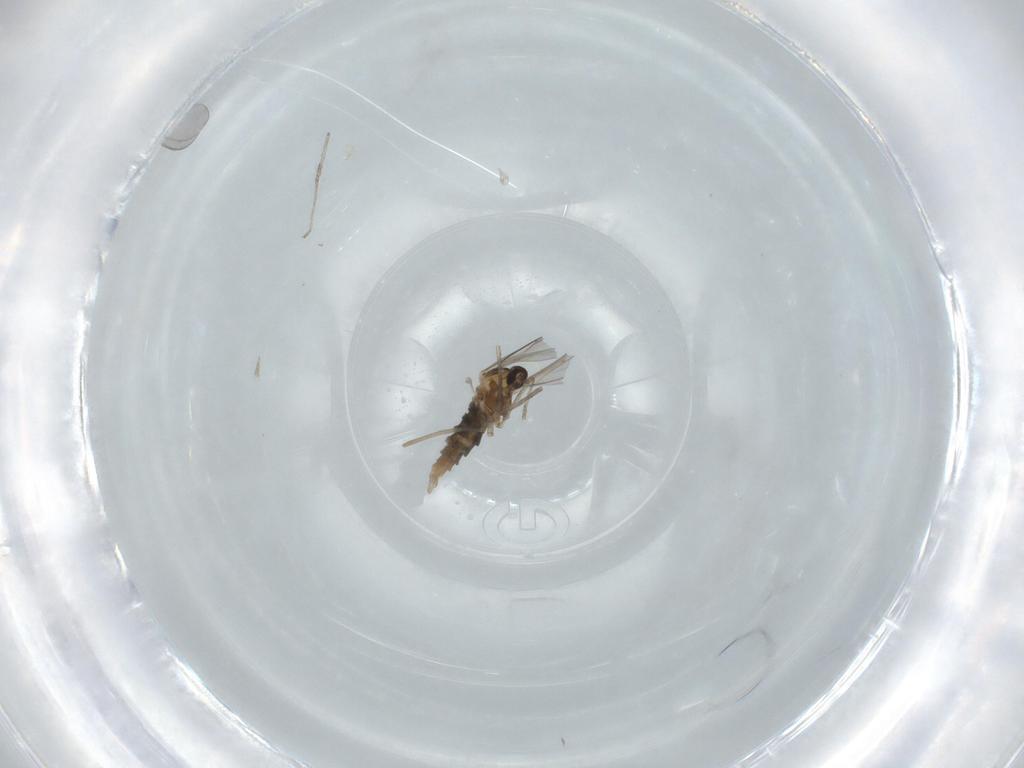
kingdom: Animalia
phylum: Arthropoda
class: Insecta
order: Diptera
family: Cecidomyiidae
